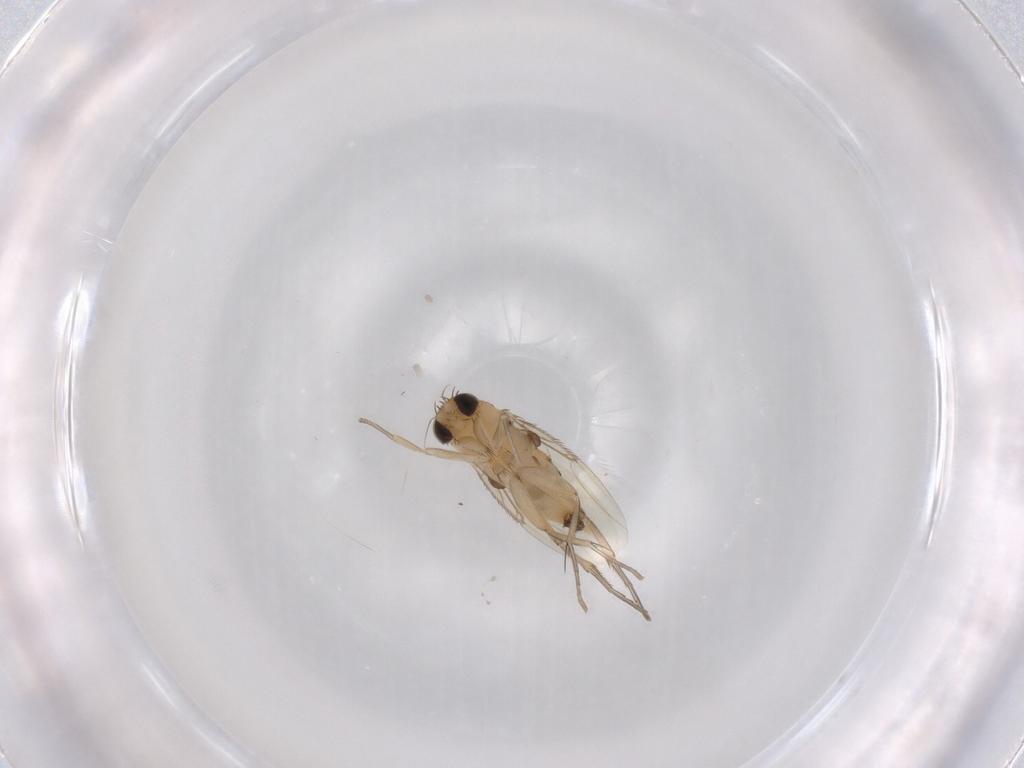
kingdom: Animalia
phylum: Arthropoda
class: Insecta
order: Diptera
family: Phoridae
